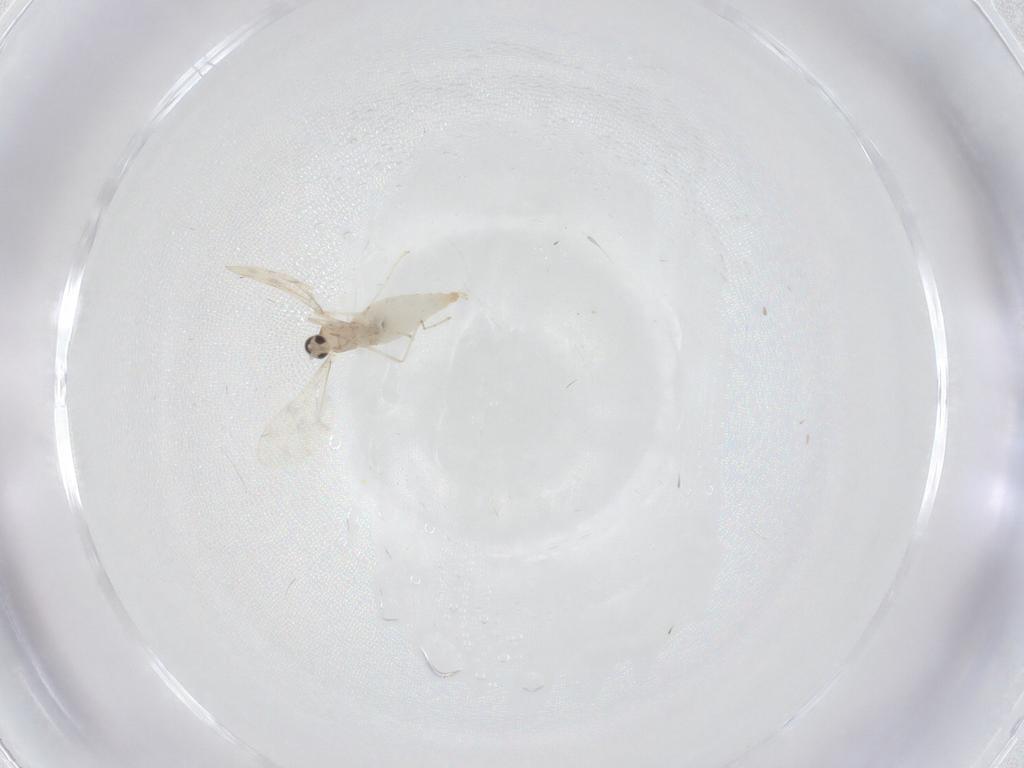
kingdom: Animalia
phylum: Arthropoda
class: Insecta
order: Diptera
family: Cecidomyiidae
